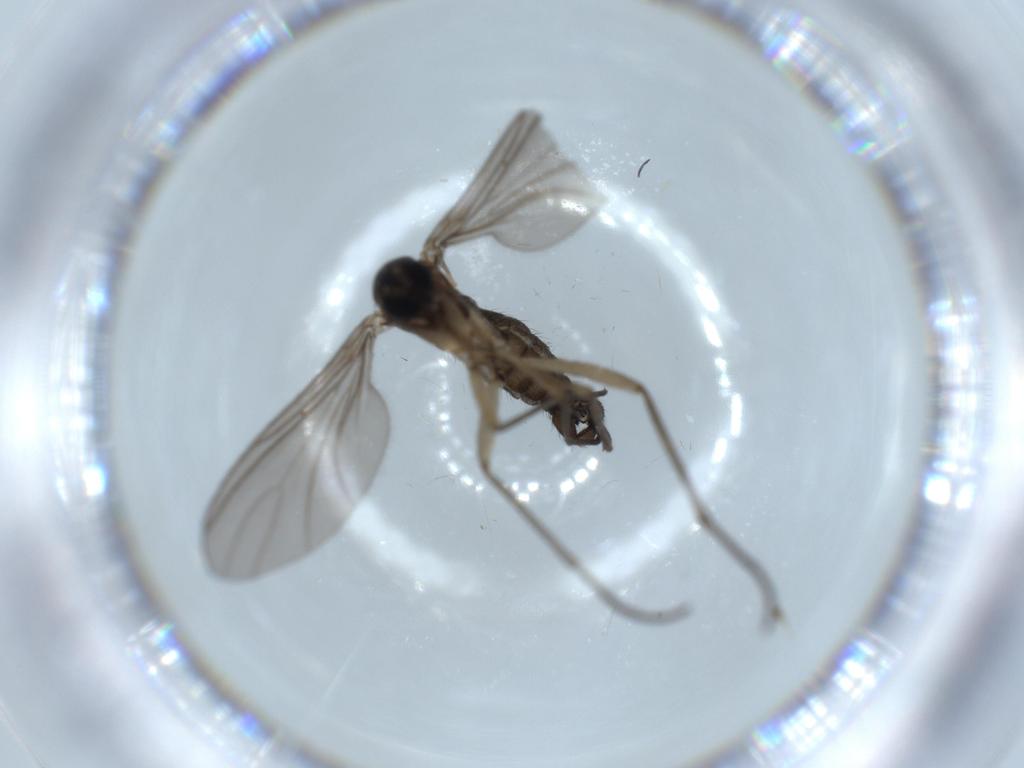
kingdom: Animalia
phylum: Arthropoda
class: Insecta
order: Diptera
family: Sciaridae
